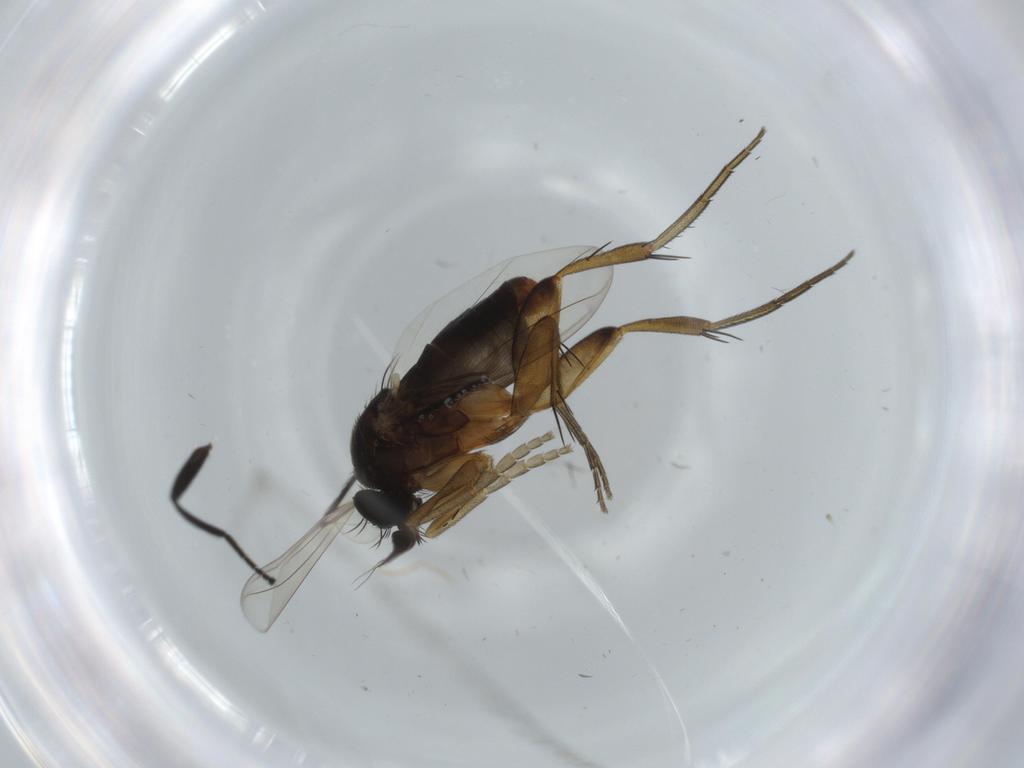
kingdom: Animalia
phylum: Arthropoda
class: Insecta
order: Diptera
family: Phoridae
